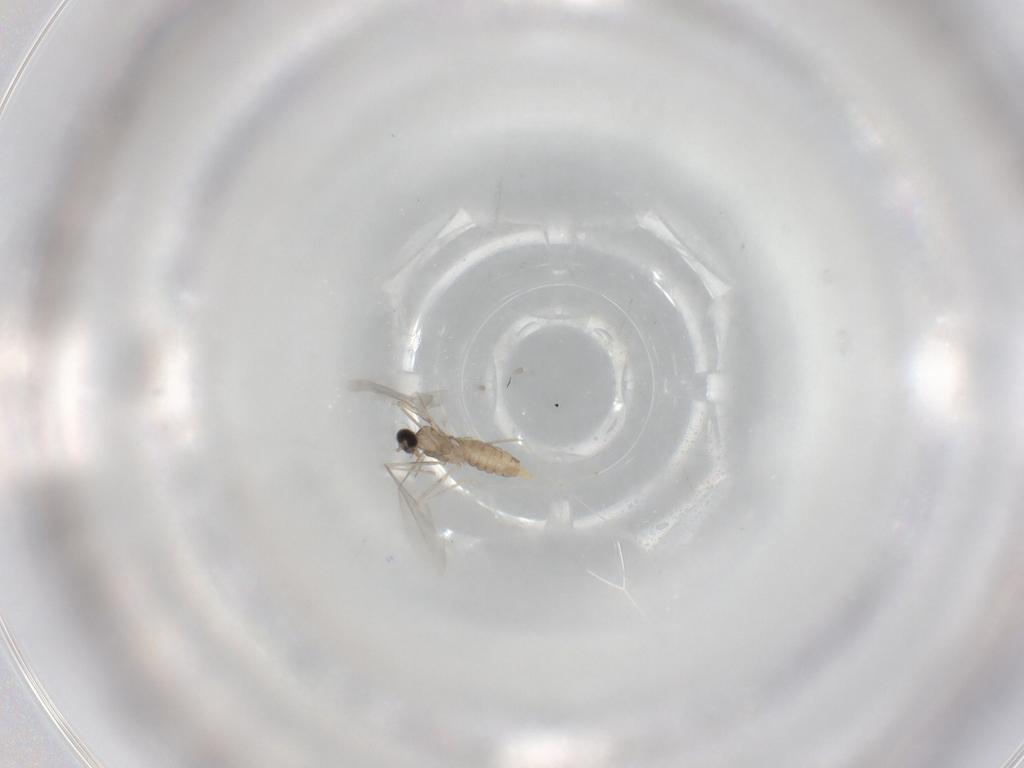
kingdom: Animalia
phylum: Arthropoda
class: Insecta
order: Diptera
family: Cecidomyiidae
